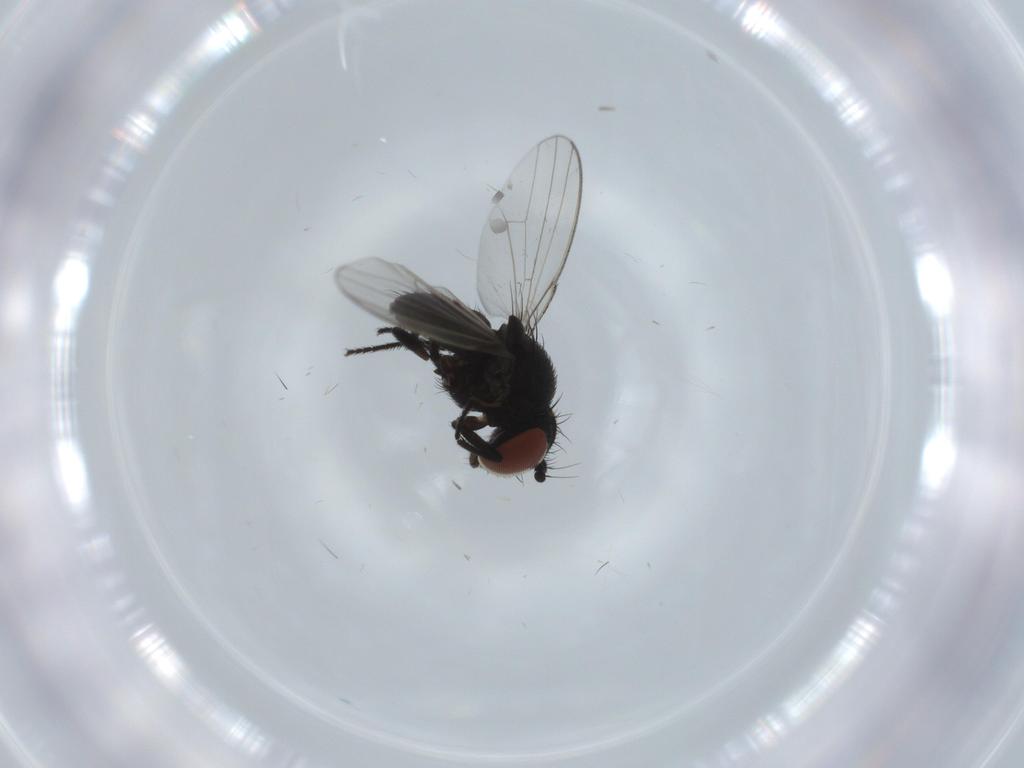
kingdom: Animalia
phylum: Arthropoda
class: Insecta
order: Diptera
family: Milichiidae
